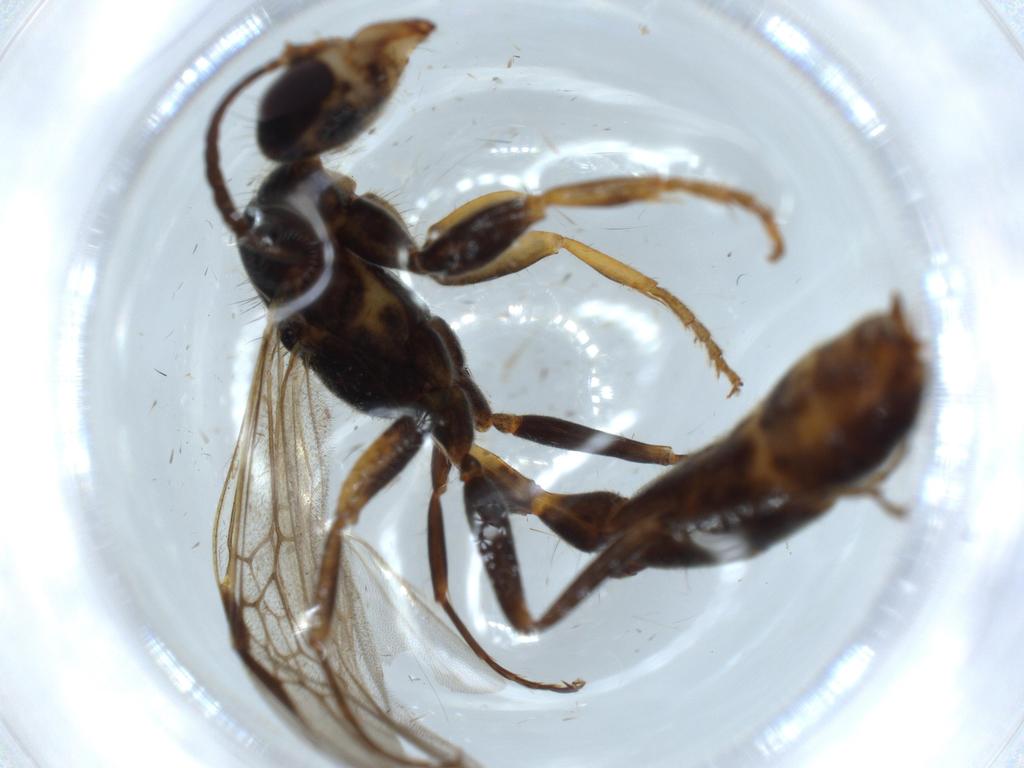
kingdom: Animalia
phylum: Arthropoda
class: Insecta
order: Hymenoptera
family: Formicidae
